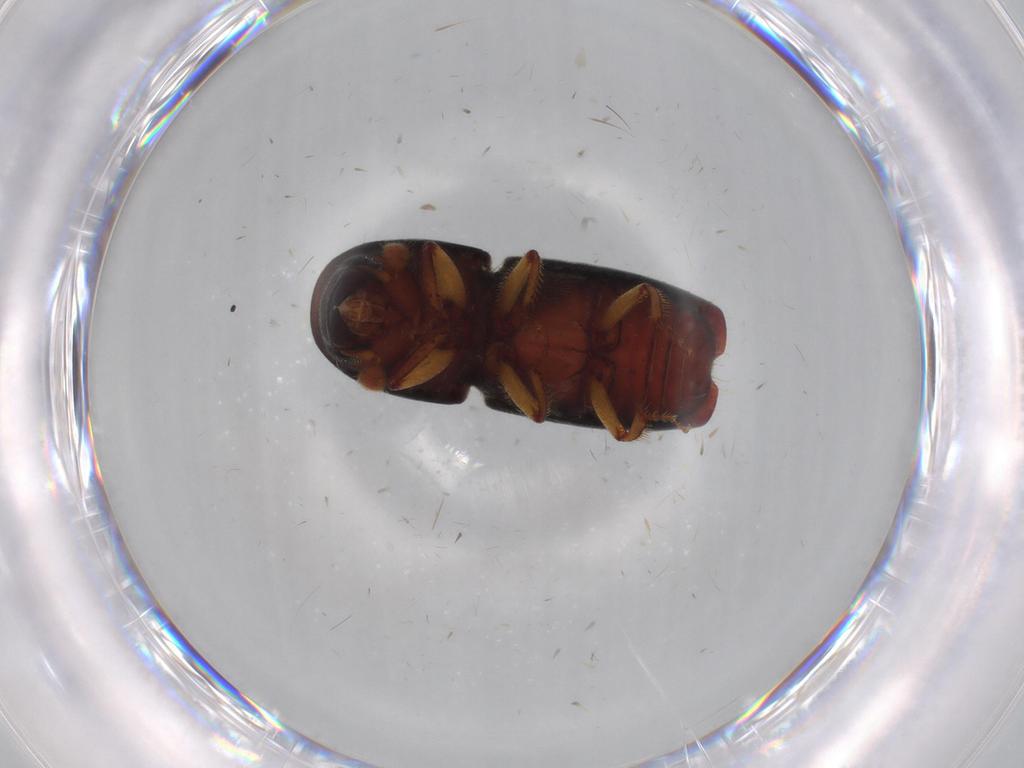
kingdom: Animalia
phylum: Arthropoda
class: Insecta
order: Coleoptera
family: Curculionidae
